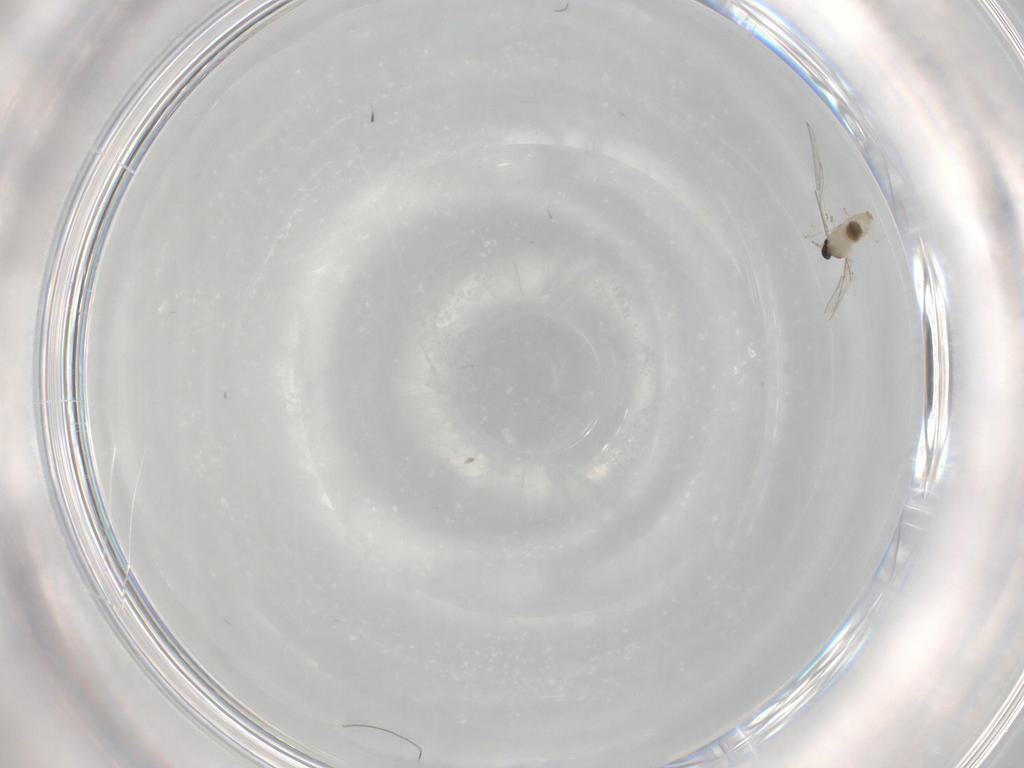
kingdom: Animalia
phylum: Arthropoda
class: Insecta
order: Diptera
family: Cecidomyiidae
